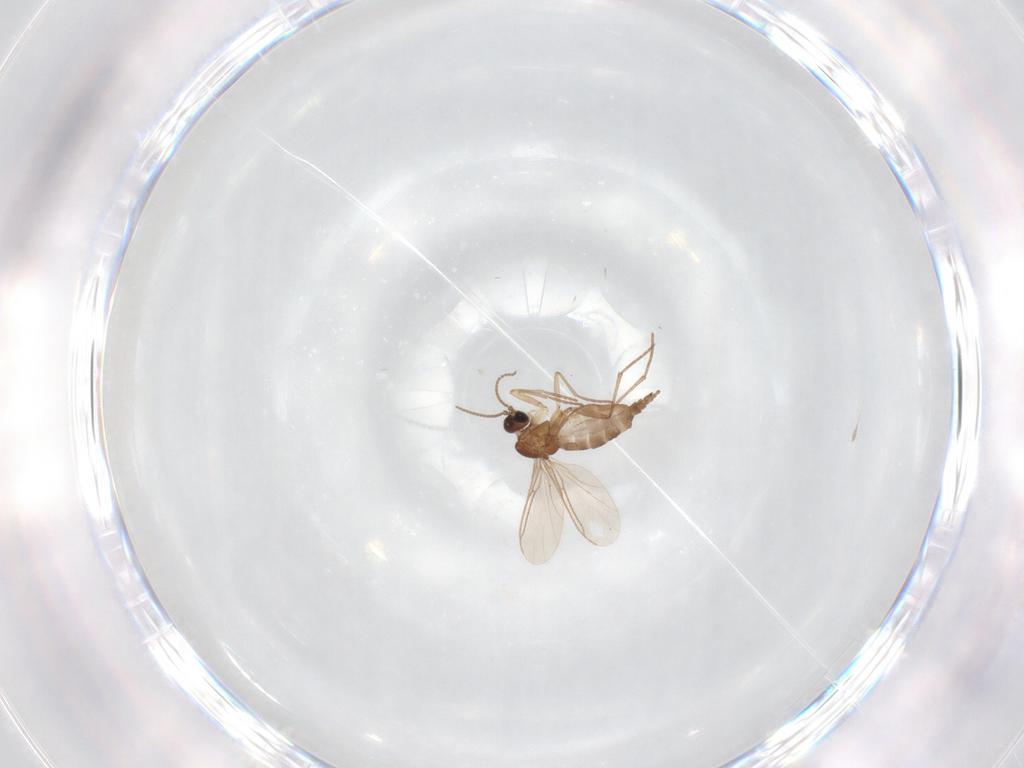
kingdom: Animalia
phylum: Arthropoda
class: Insecta
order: Diptera
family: Sciaridae
